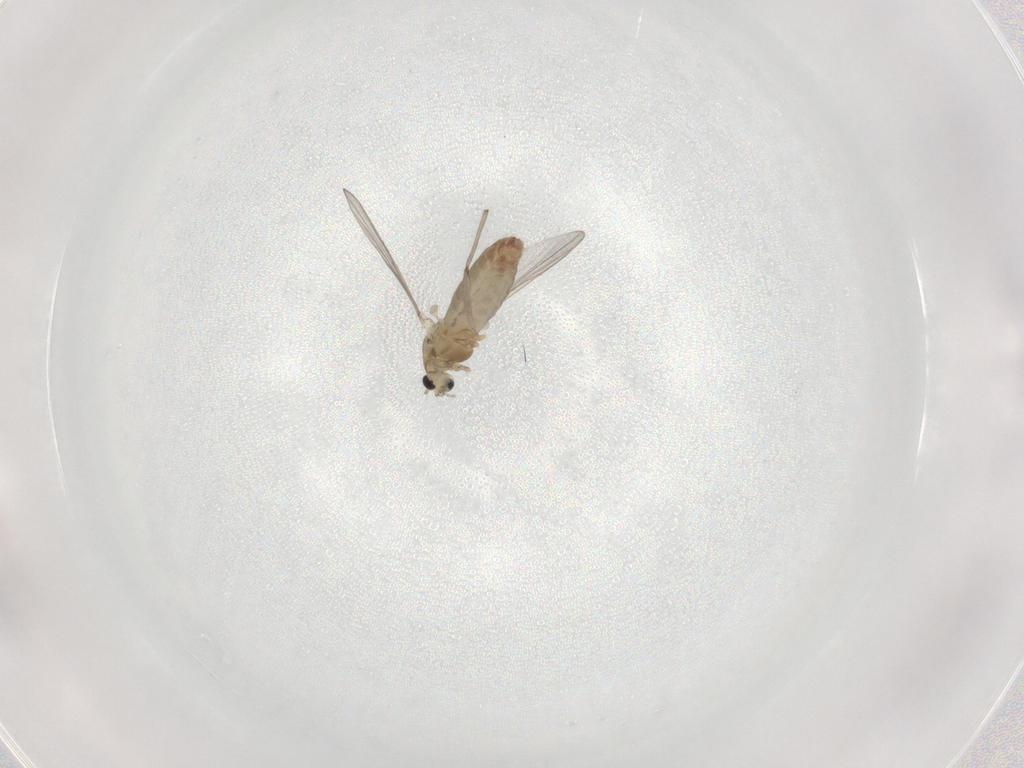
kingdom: Animalia
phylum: Arthropoda
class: Insecta
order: Diptera
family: Chironomidae
